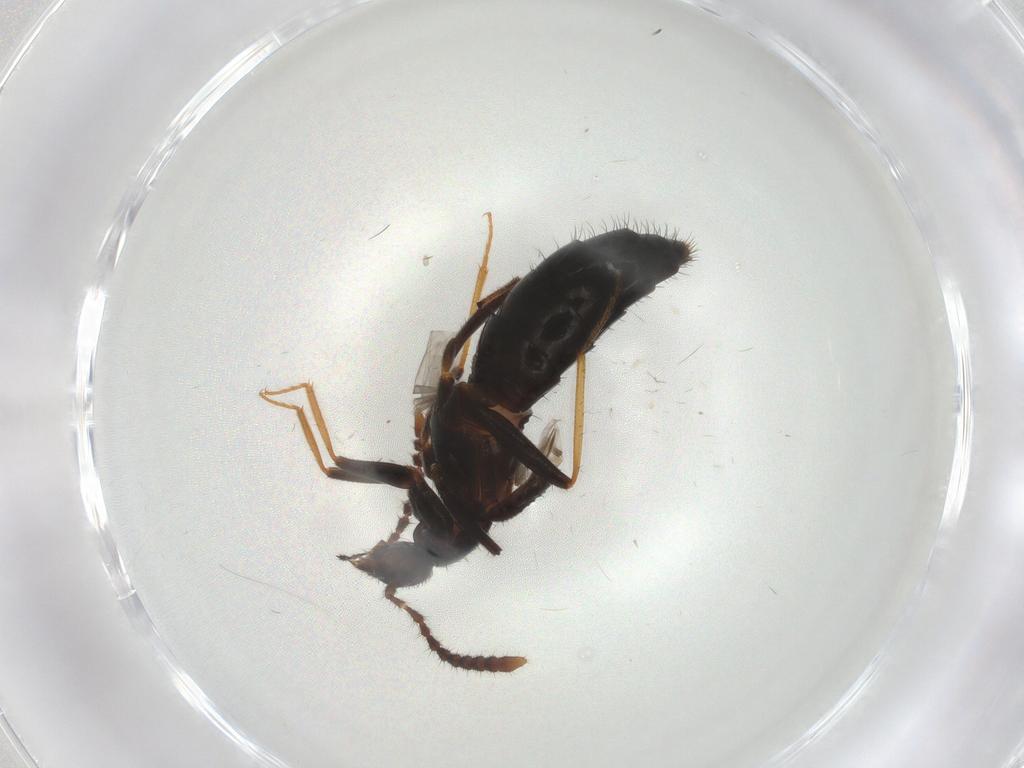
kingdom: Animalia
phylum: Arthropoda
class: Insecta
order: Coleoptera
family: Staphylinidae
